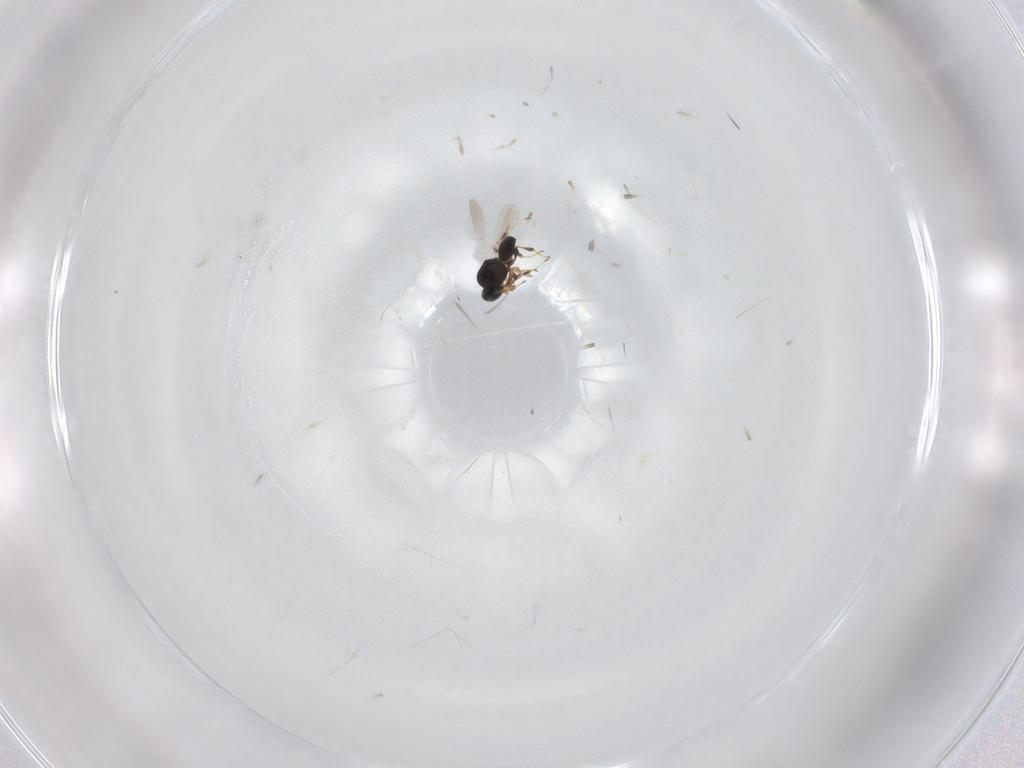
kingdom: Animalia
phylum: Arthropoda
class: Insecta
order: Hymenoptera
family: Platygastridae
